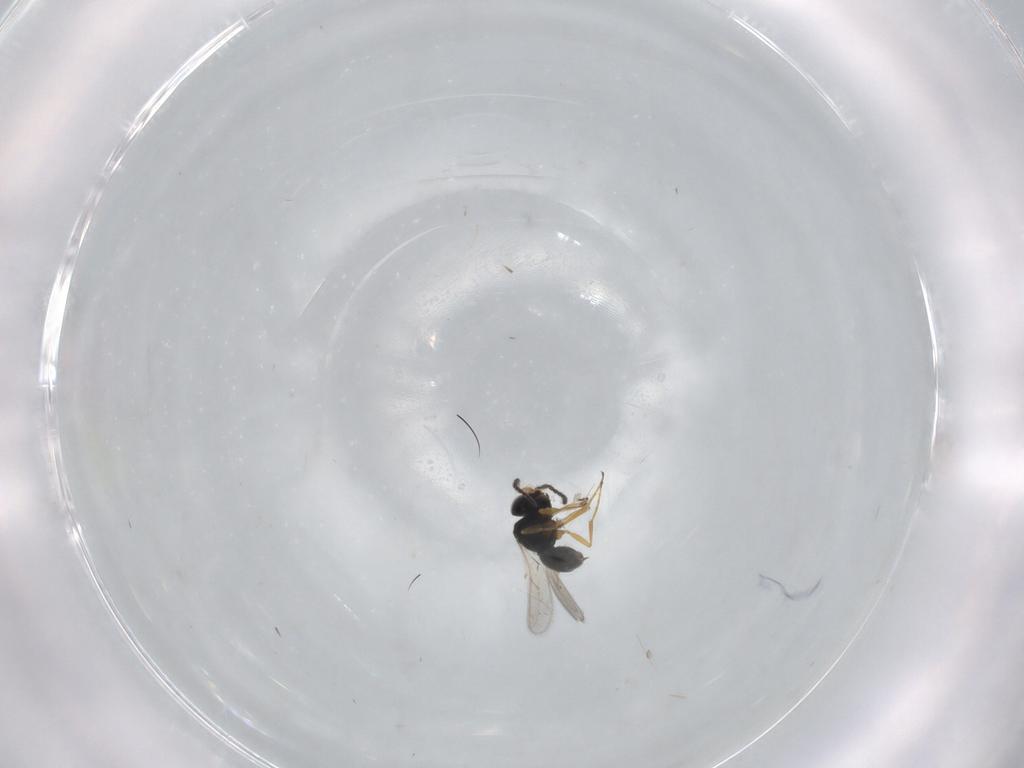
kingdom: Animalia
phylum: Arthropoda
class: Insecta
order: Hymenoptera
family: Scelionidae
